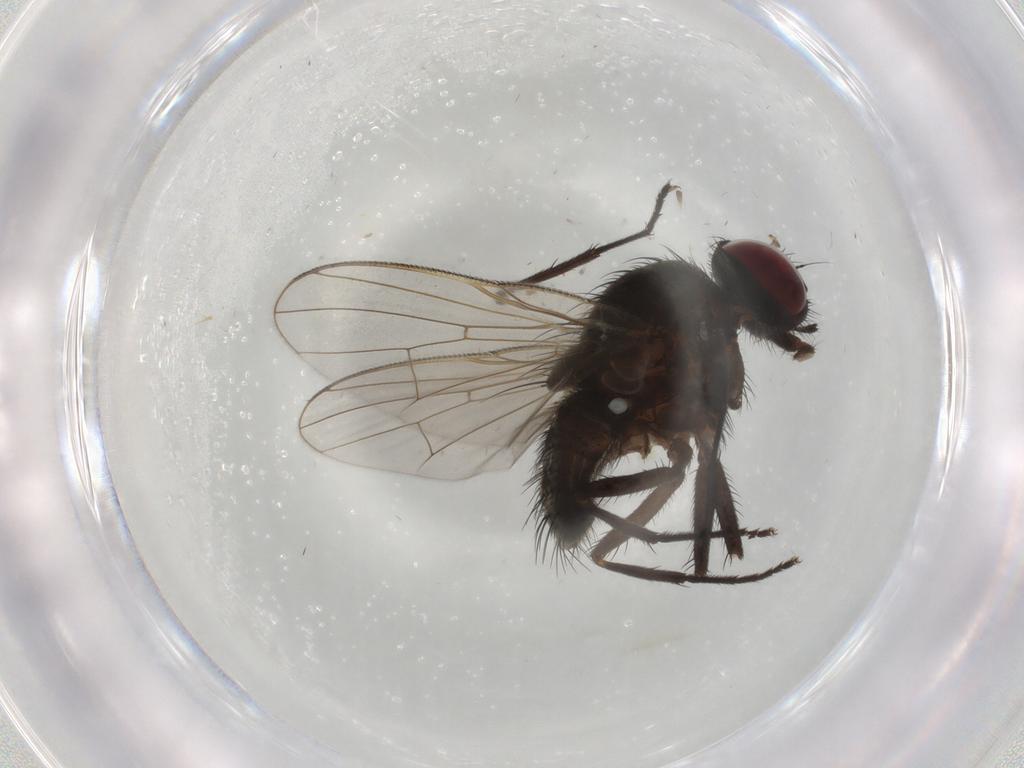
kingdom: Animalia
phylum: Arthropoda
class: Insecta
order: Diptera
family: Muscidae
